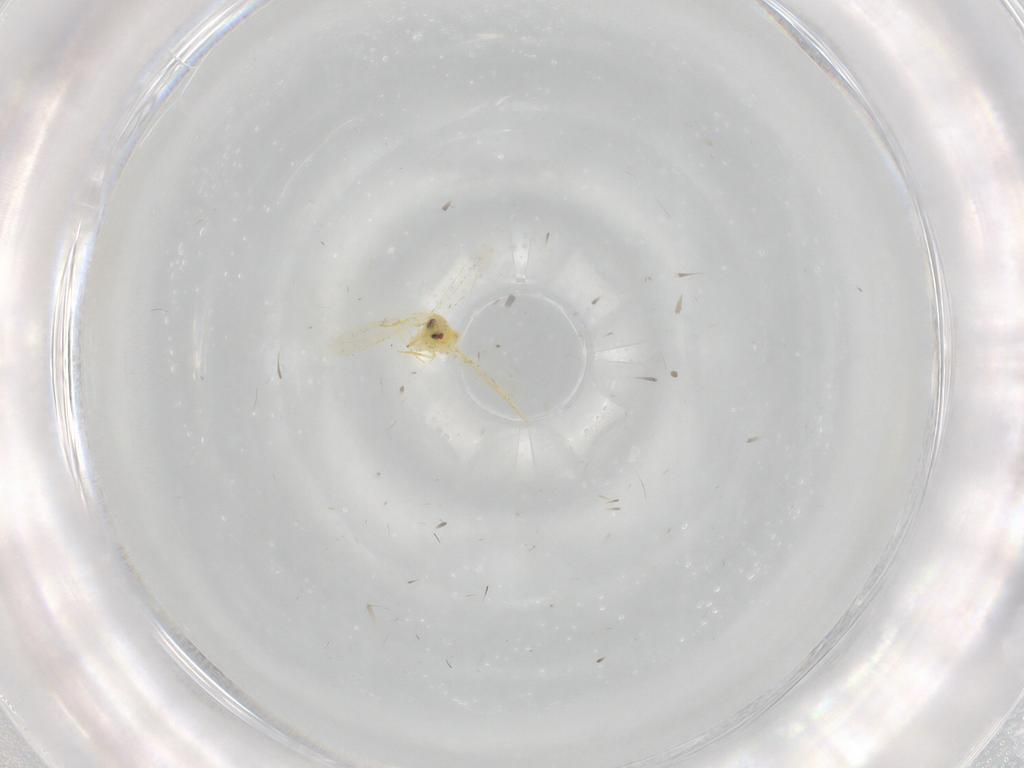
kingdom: Animalia
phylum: Arthropoda
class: Insecta
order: Hemiptera
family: Aleyrodidae
